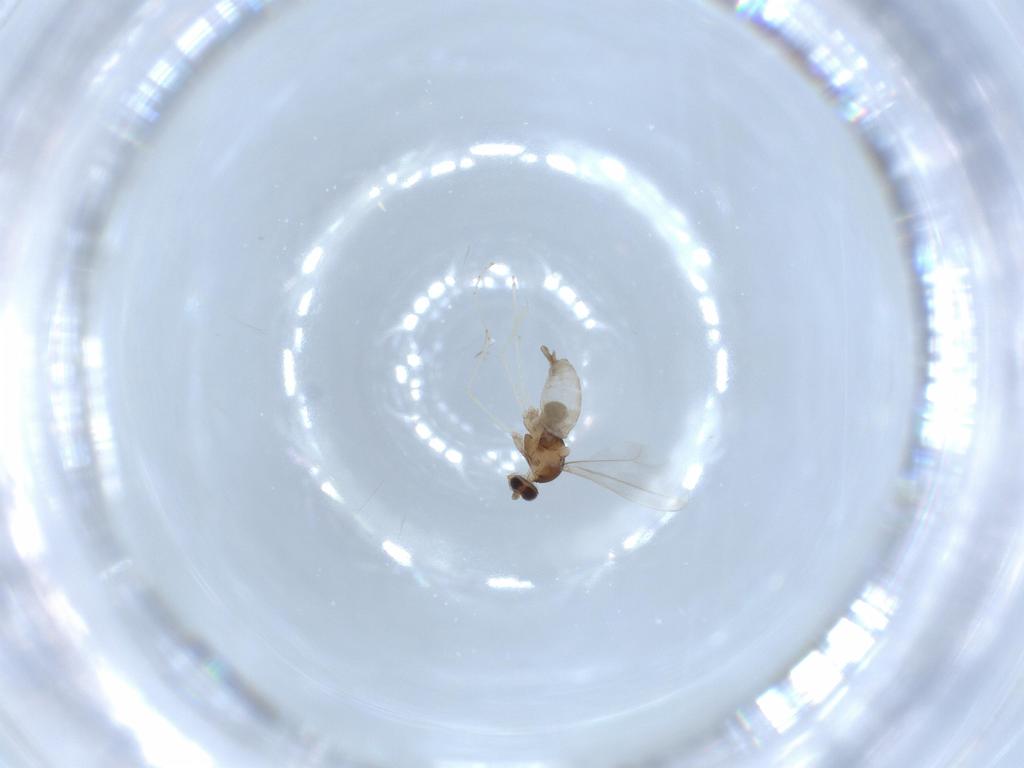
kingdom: Animalia
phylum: Arthropoda
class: Insecta
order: Diptera
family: Cecidomyiidae
